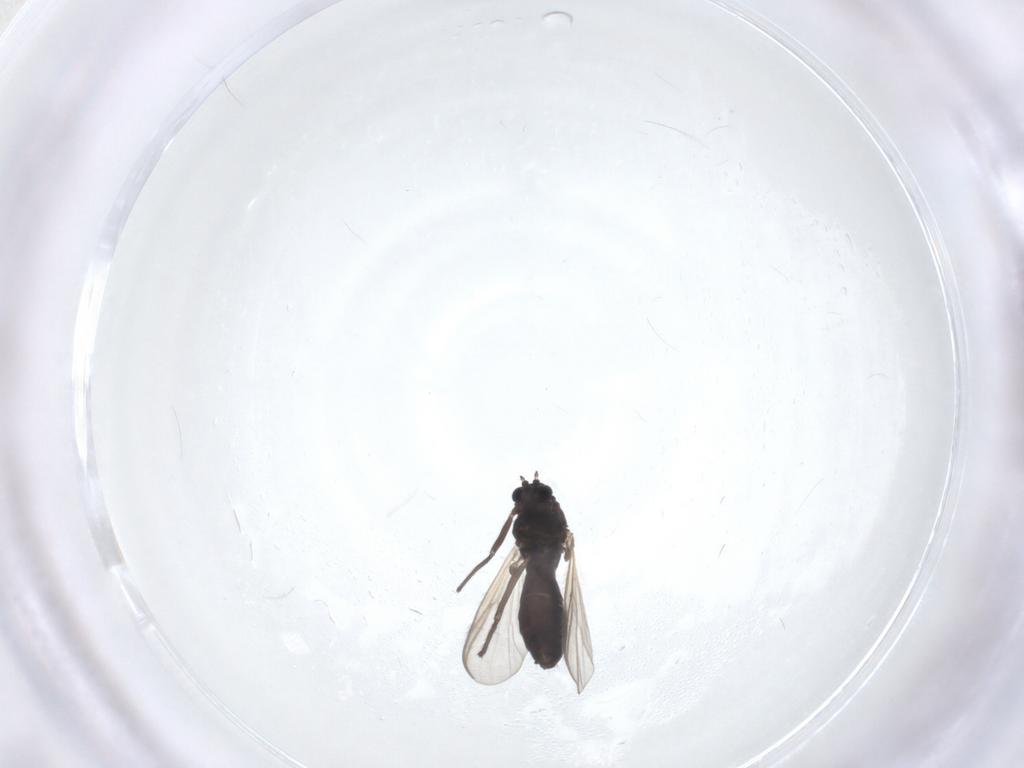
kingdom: Animalia
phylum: Arthropoda
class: Insecta
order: Diptera
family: Chironomidae
